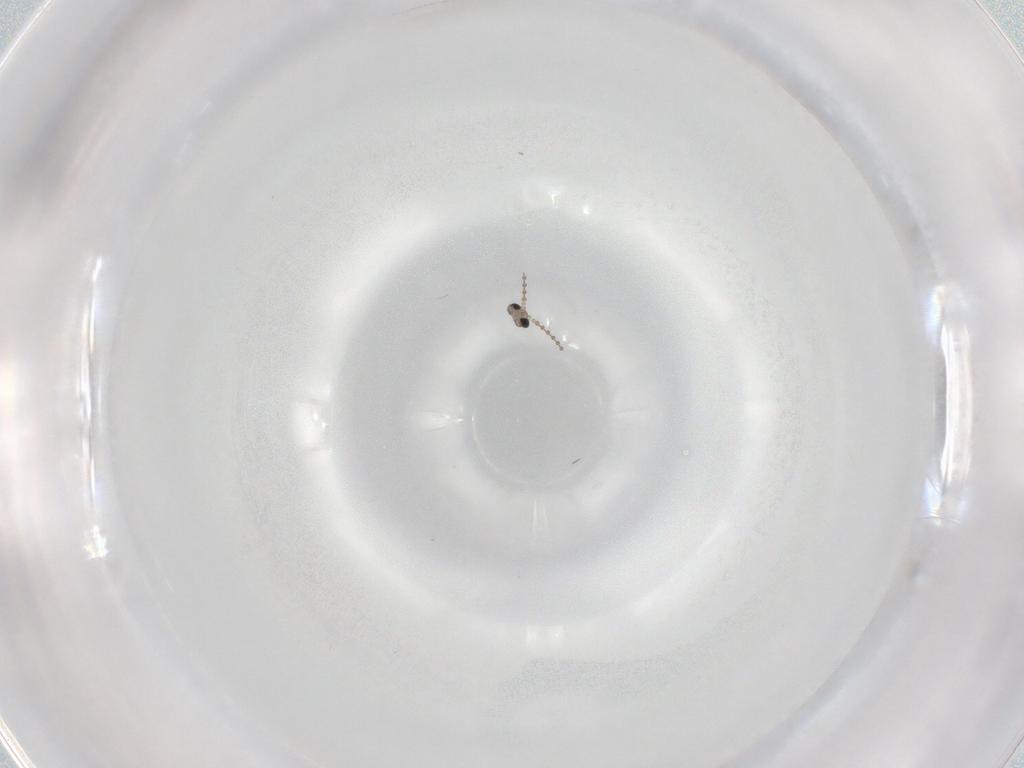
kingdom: Animalia
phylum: Arthropoda
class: Insecta
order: Diptera
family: Cecidomyiidae
